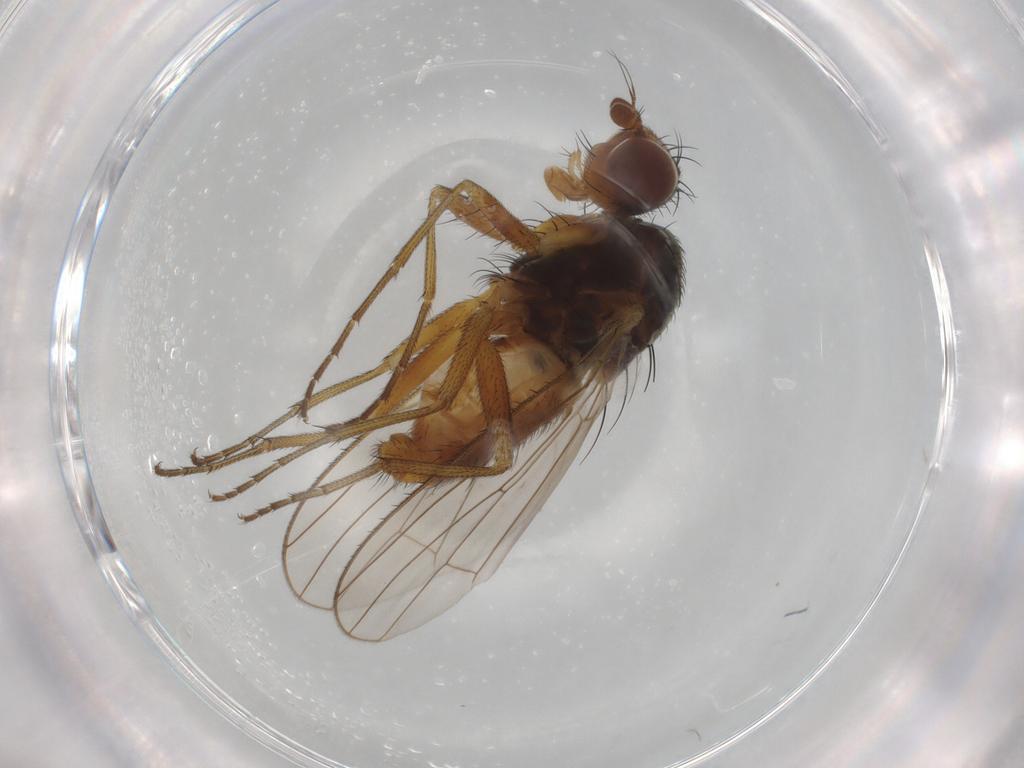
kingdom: Animalia
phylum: Arthropoda
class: Insecta
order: Diptera
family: Heleomyzidae
